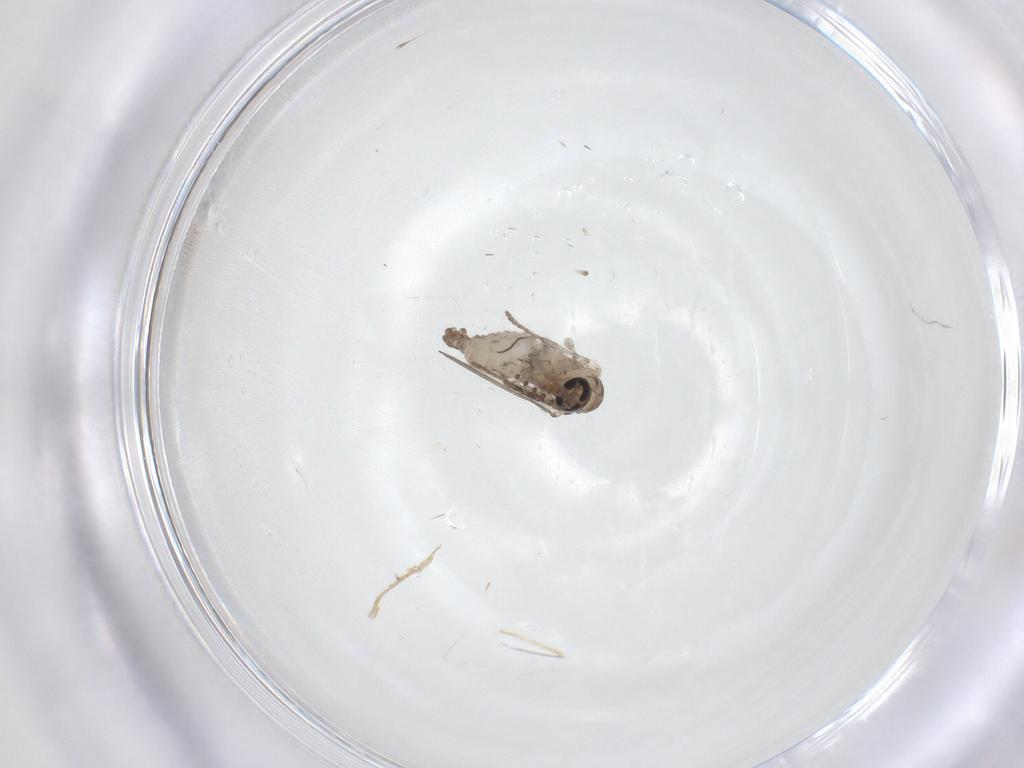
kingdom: Animalia
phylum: Arthropoda
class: Insecta
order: Diptera
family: Psychodidae
